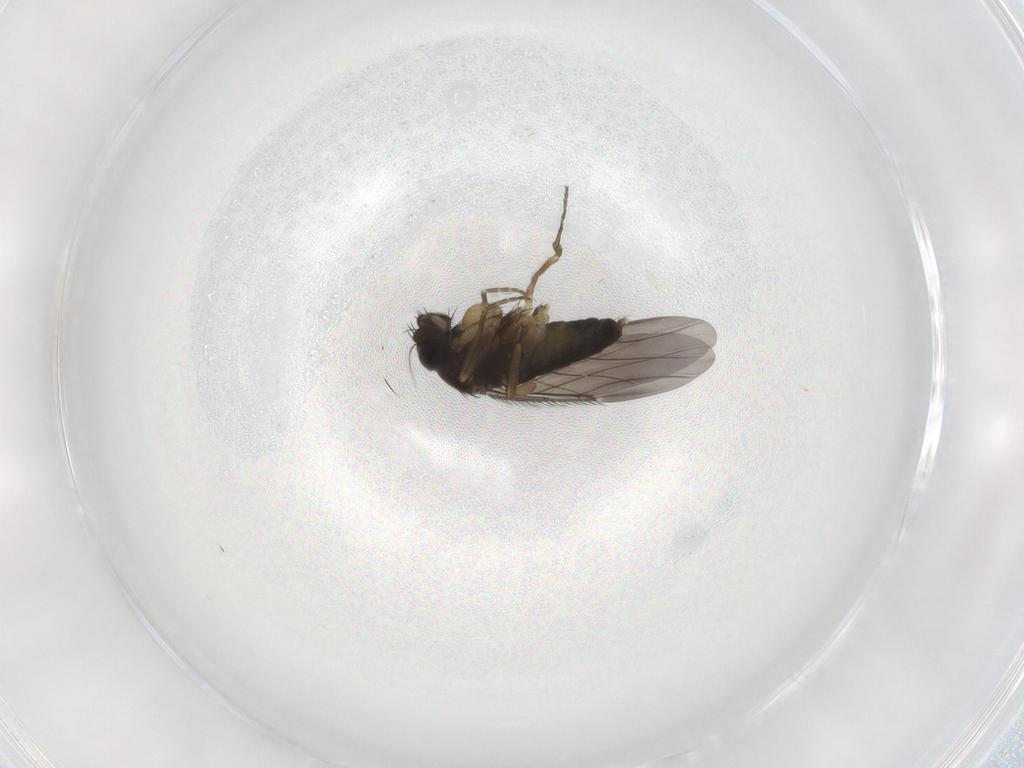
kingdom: Animalia
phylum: Arthropoda
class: Insecta
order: Diptera
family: Phoridae
